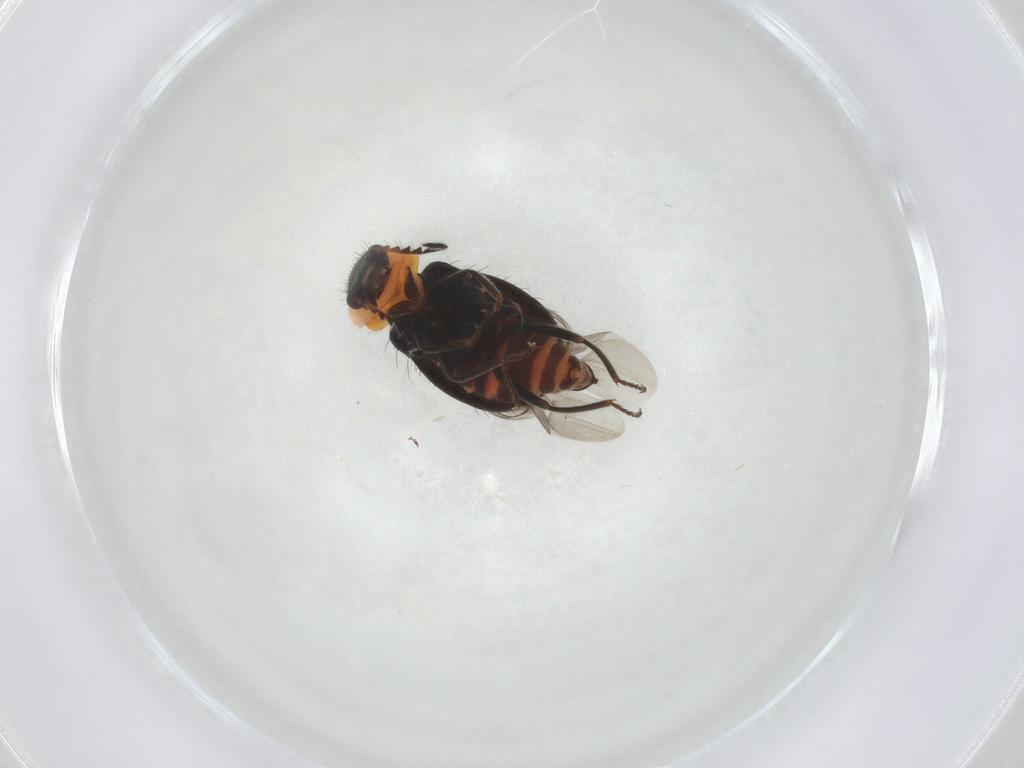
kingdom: Animalia
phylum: Arthropoda
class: Insecta
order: Coleoptera
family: Melyridae
